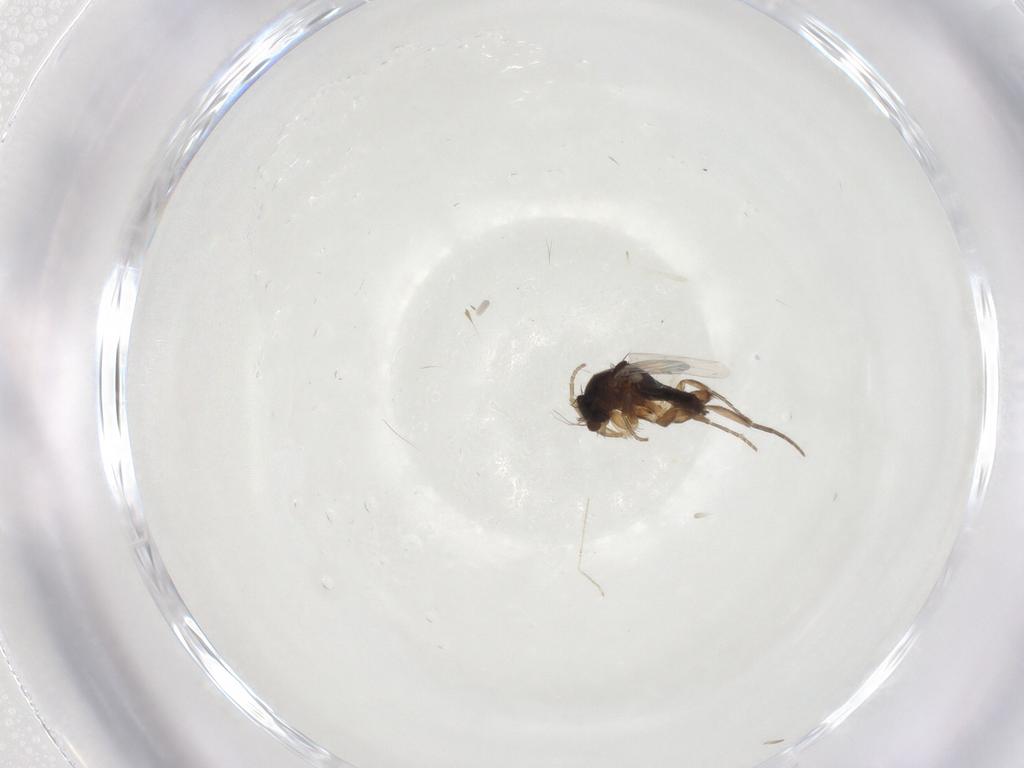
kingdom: Animalia
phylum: Arthropoda
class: Insecta
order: Diptera
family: Phoridae
